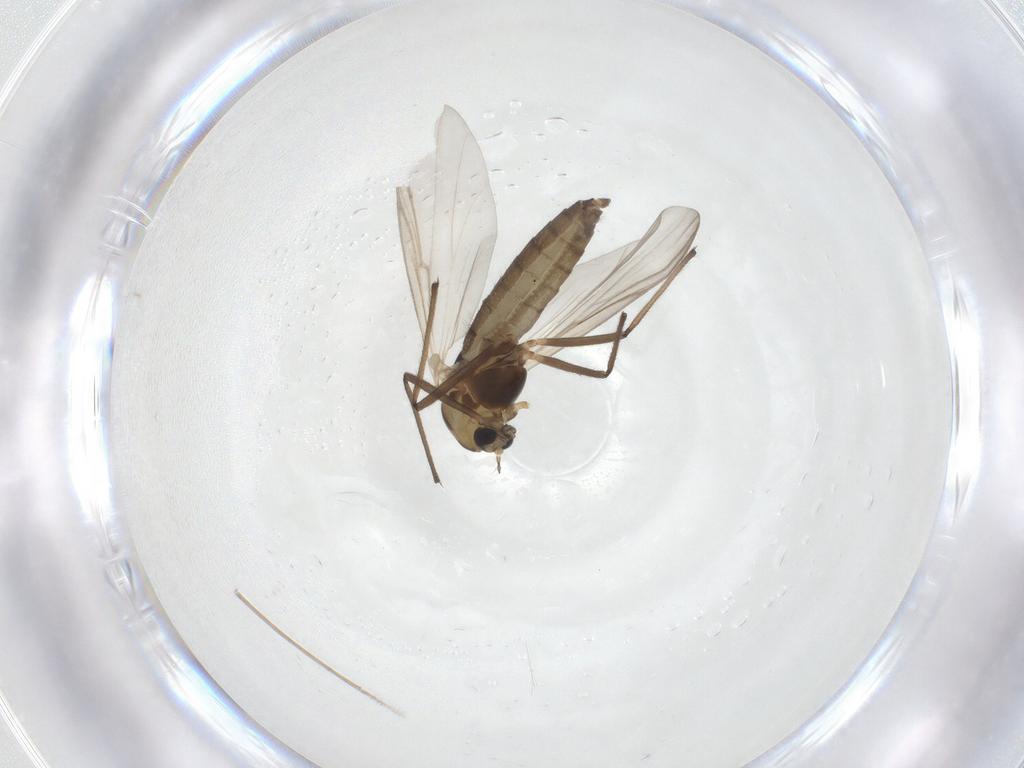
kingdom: Animalia
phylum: Arthropoda
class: Insecta
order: Diptera
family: Chironomidae
